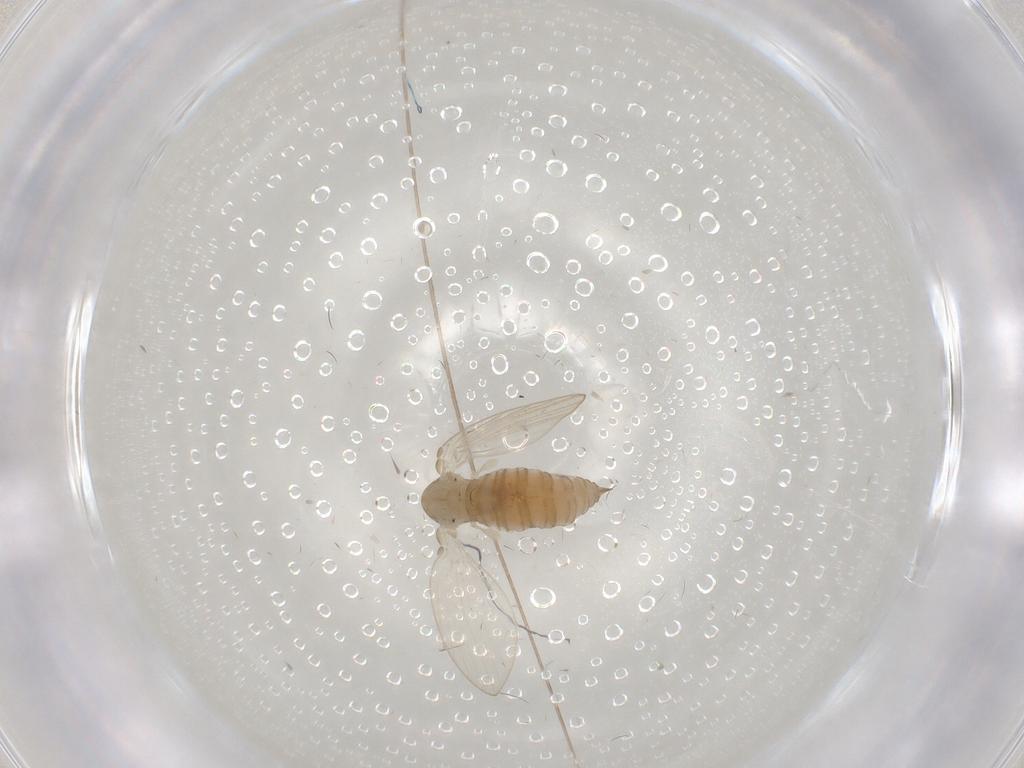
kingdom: Animalia
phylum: Arthropoda
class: Insecta
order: Diptera
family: Psychodidae
